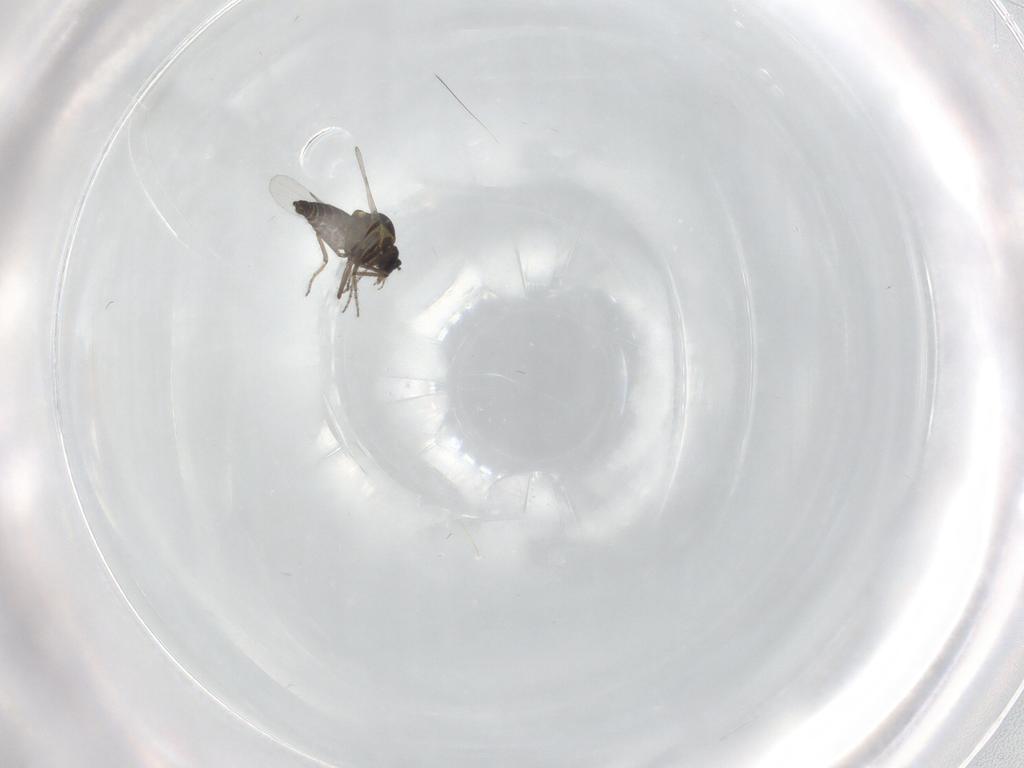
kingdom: Animalia
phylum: Arthropoda
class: Insecta
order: Diptera
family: Ceratopogonidae
